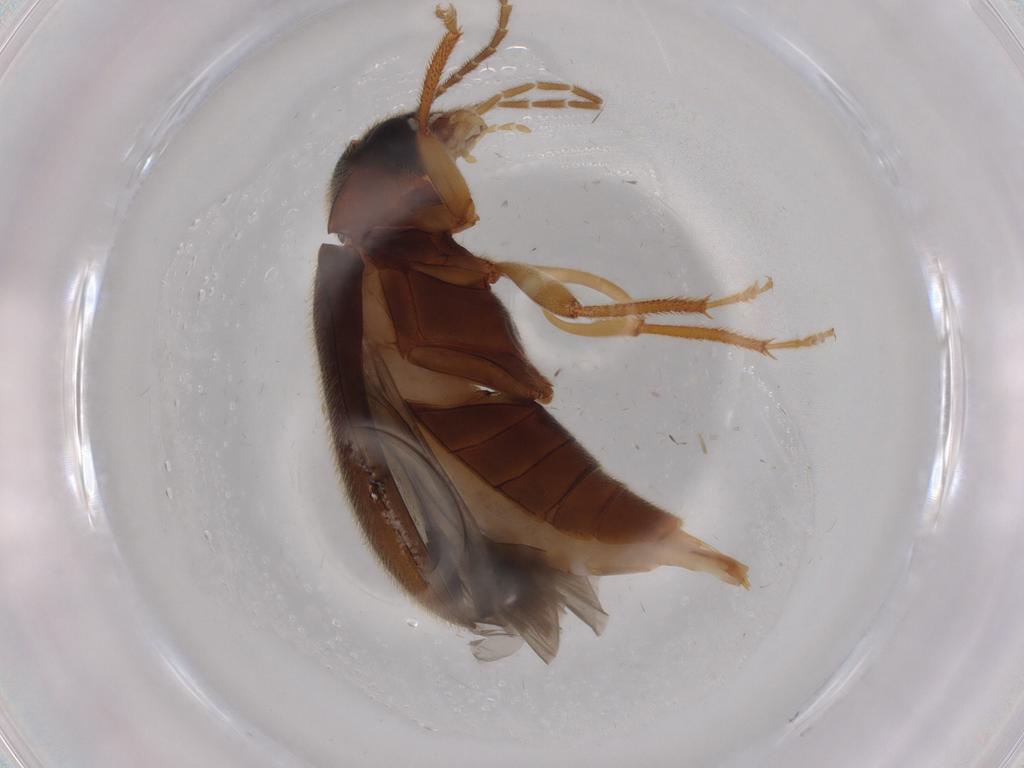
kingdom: Animalia
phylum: Arthropoda
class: Insecta
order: Coleoptera
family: Ptilodactylidae
